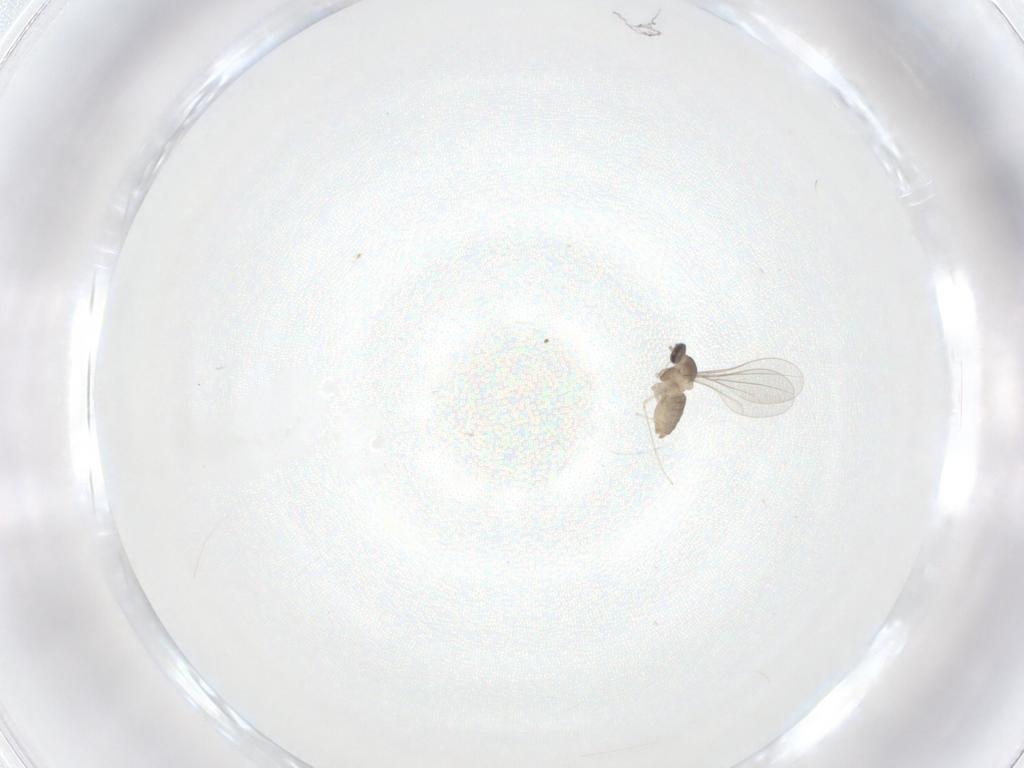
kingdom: Animalia
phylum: Arthropoda
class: Insecta
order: Diptera
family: Cecidomyiidae
